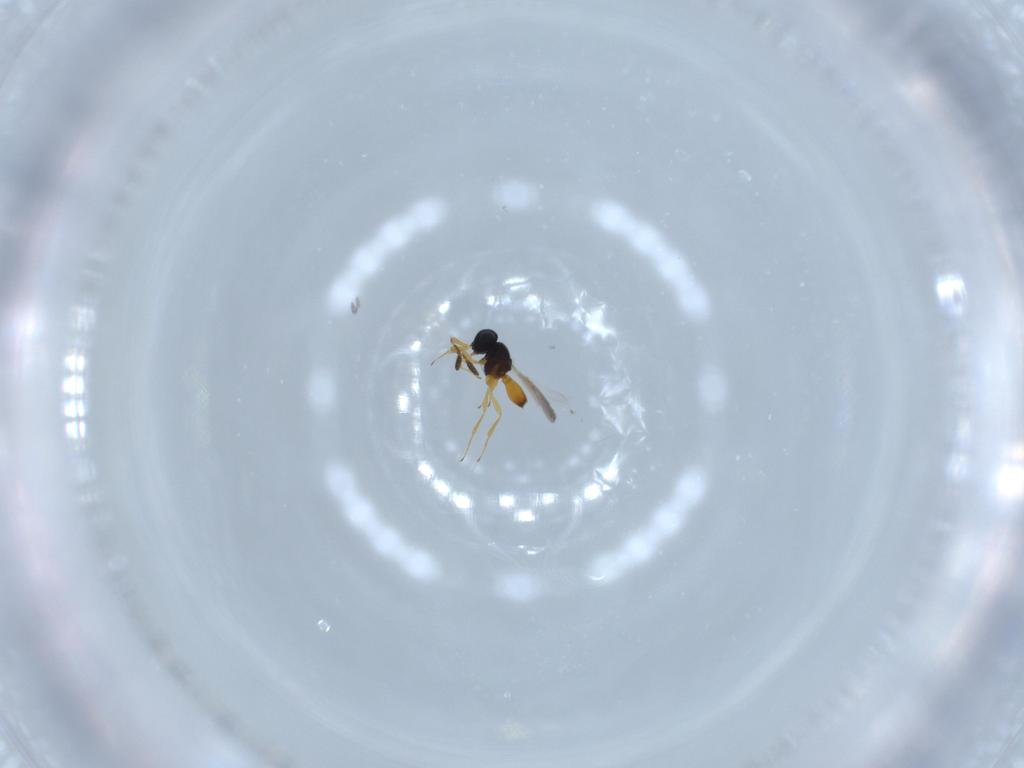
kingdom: Animalia
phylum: Arthropoda
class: Insecta
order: Hymenoptera
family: Scelionidae
